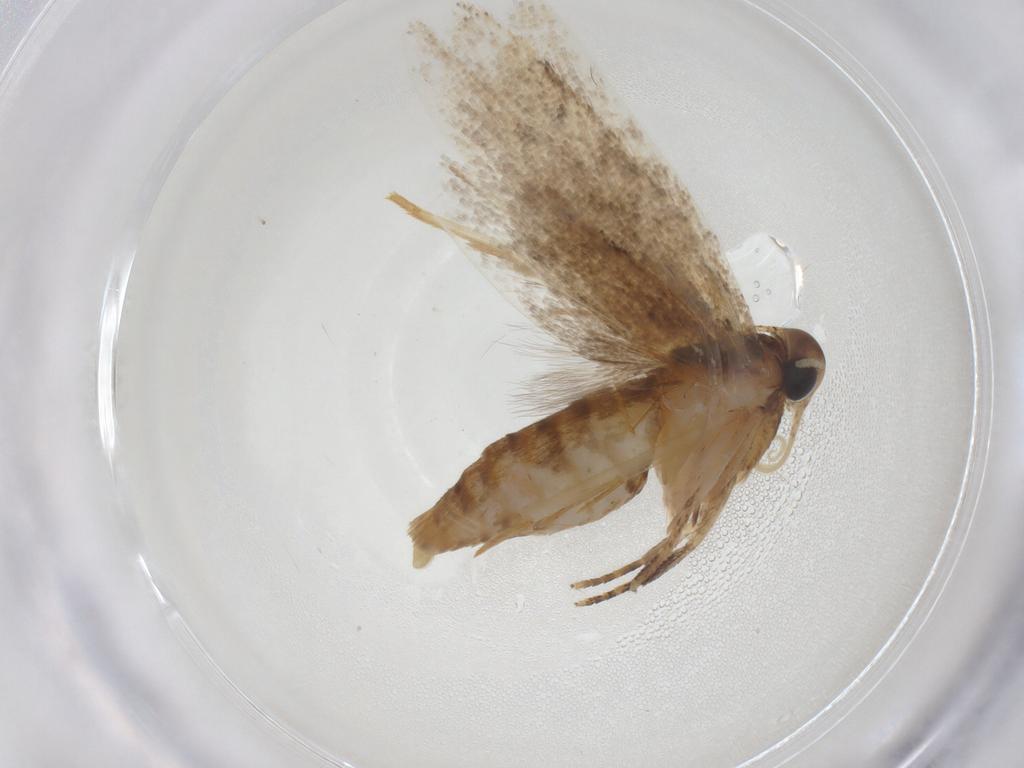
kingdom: Animalia
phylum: Arthropoda
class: Insecta
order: Lepidoptera
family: Oecophoridae
